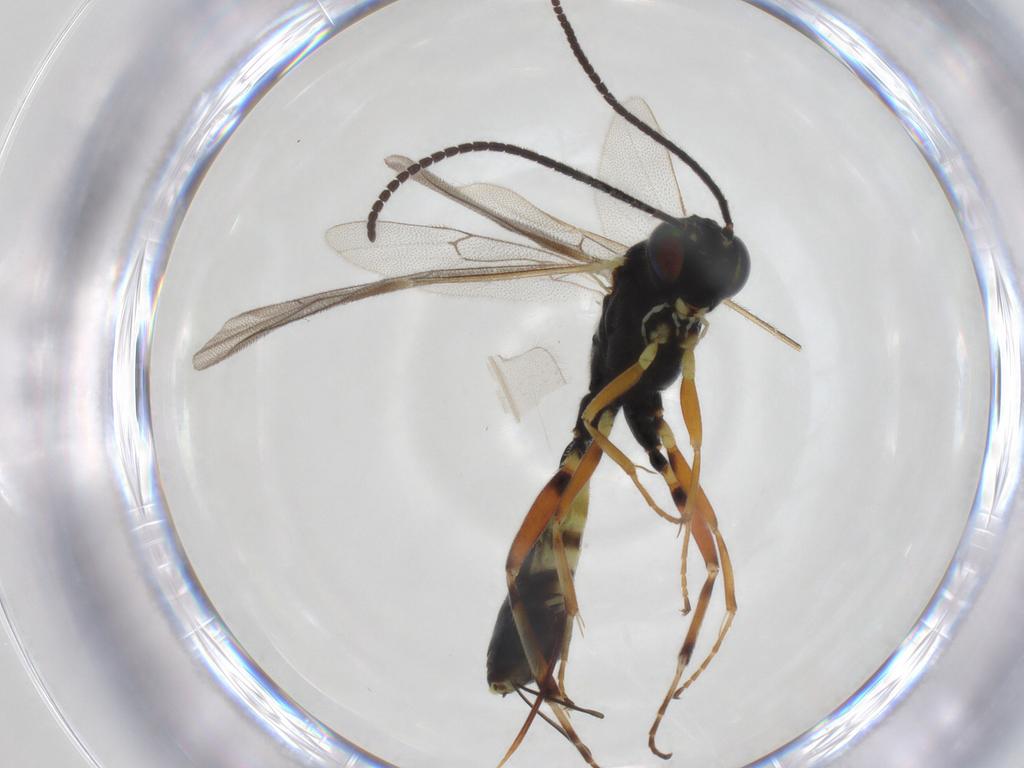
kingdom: Animalia
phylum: Arthropoda
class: Insecta
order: Hymenoptera
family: Ichneumonidae
